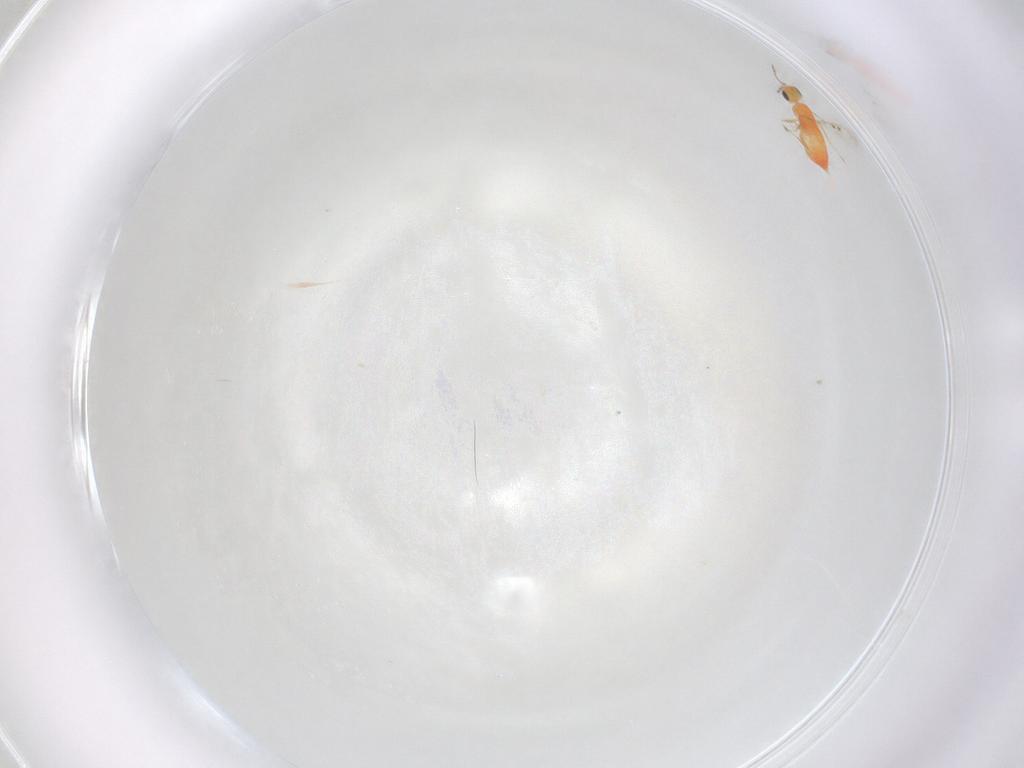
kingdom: Animalia
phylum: Arthropoda
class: Insecta
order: Hymenoptera
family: Trichogrammatidae
